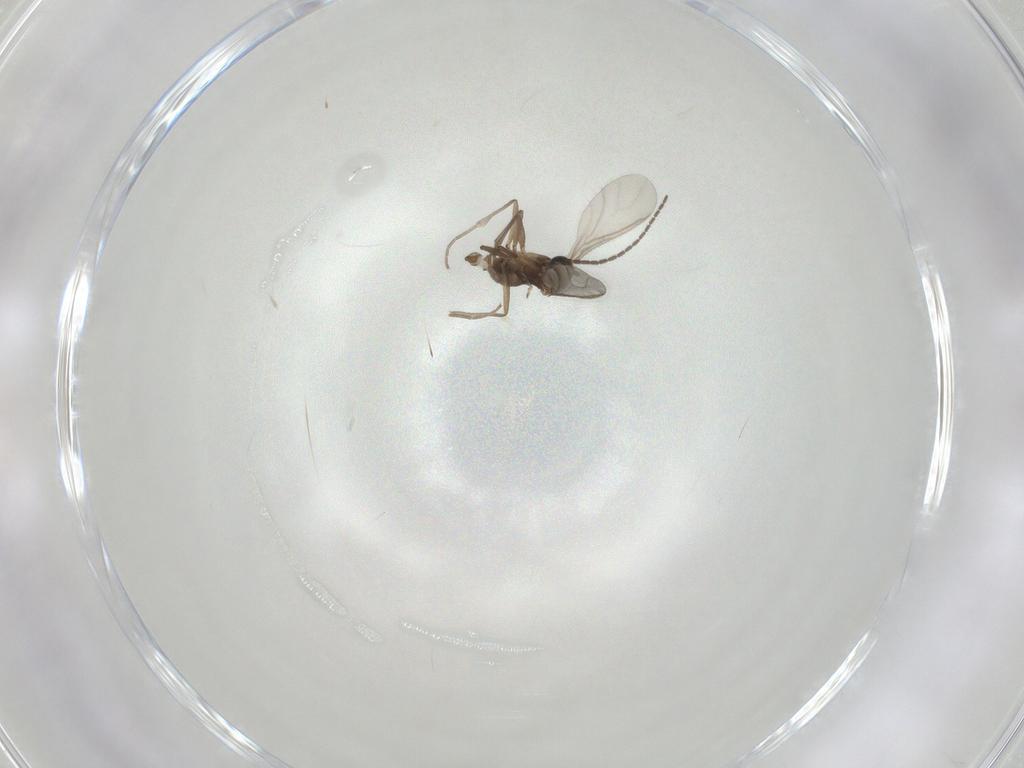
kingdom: Animalia
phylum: Arthropoda
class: Insecta
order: Diptera
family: Sciaridae
